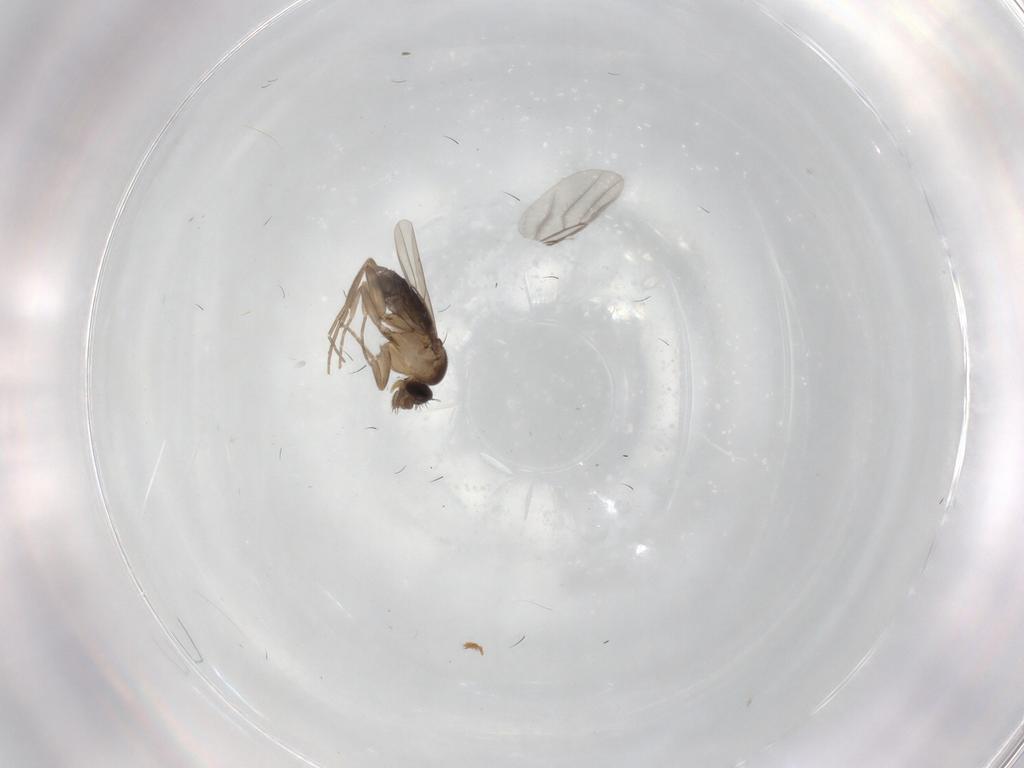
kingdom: Animalia
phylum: Arthropoda
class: Insecta
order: Diptera
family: Phoridae
